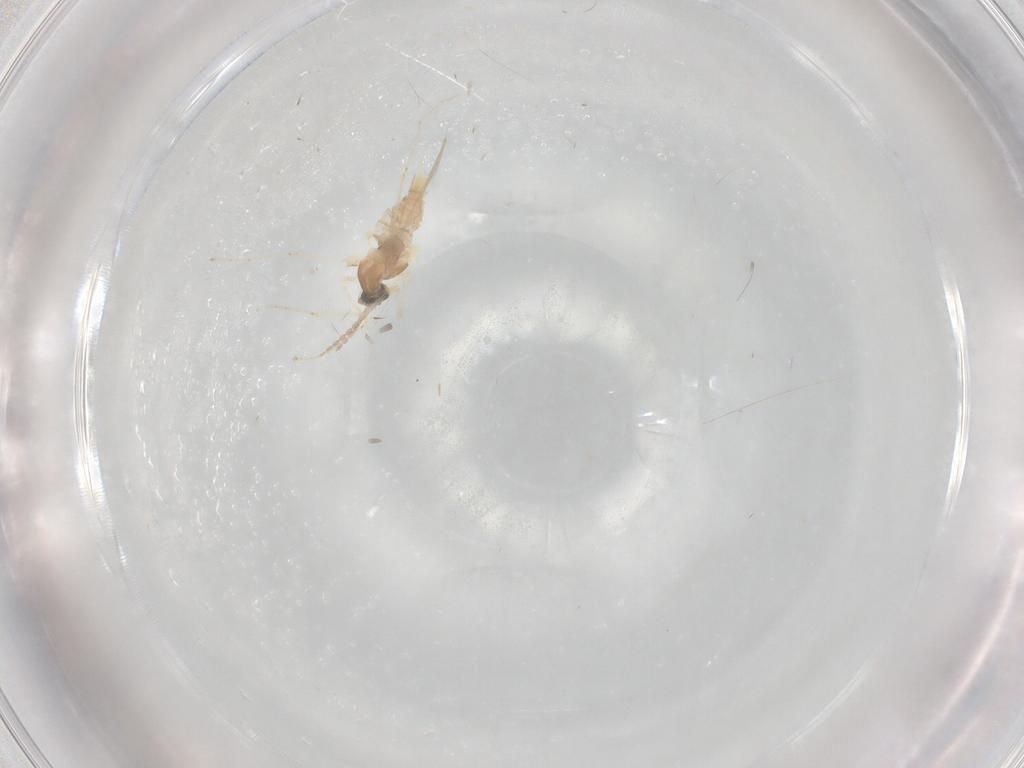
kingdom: Animalia
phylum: Arthropoda
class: Insecta
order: Diptera
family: Cecidomyiidae
